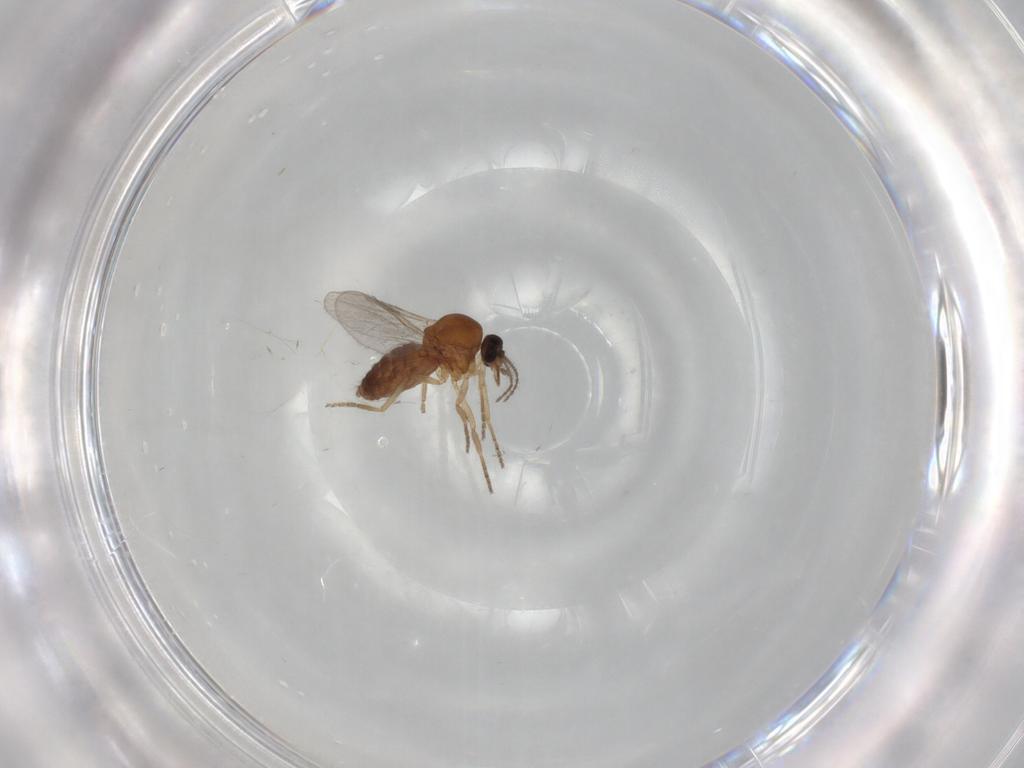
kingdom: Animalia
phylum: Arthropoda
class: Insecta
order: Diptera
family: Ceratopogonidae
